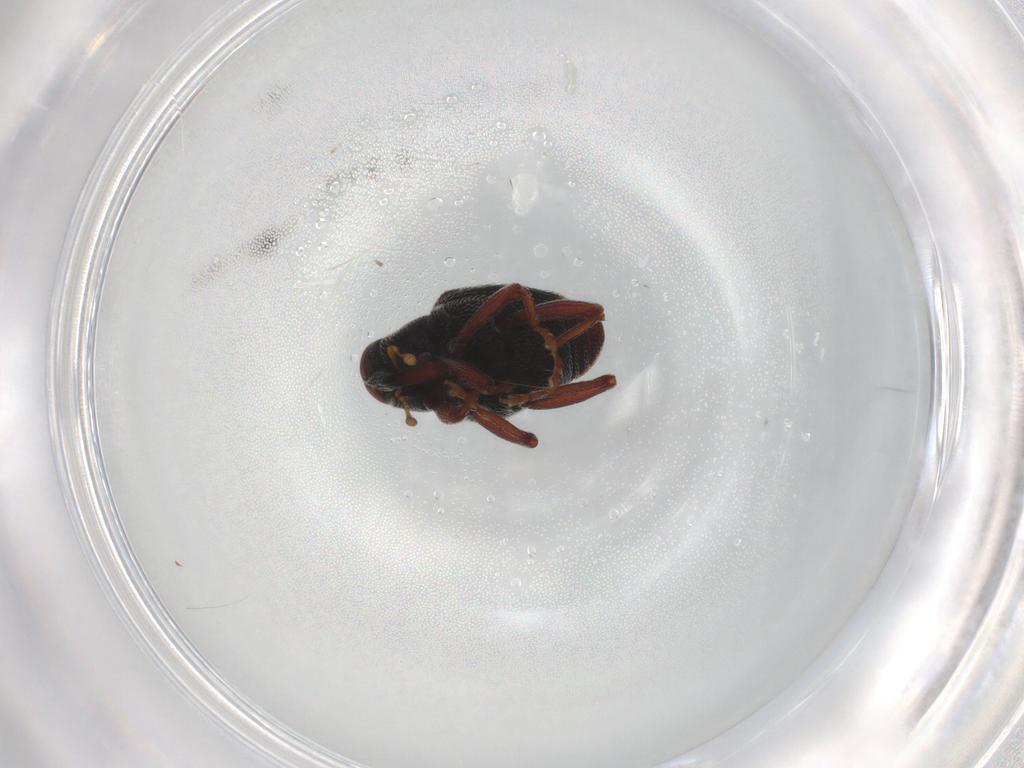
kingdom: Animalia
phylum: Arthropoda
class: Insecta
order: Coleoptera
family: Curculionidae
